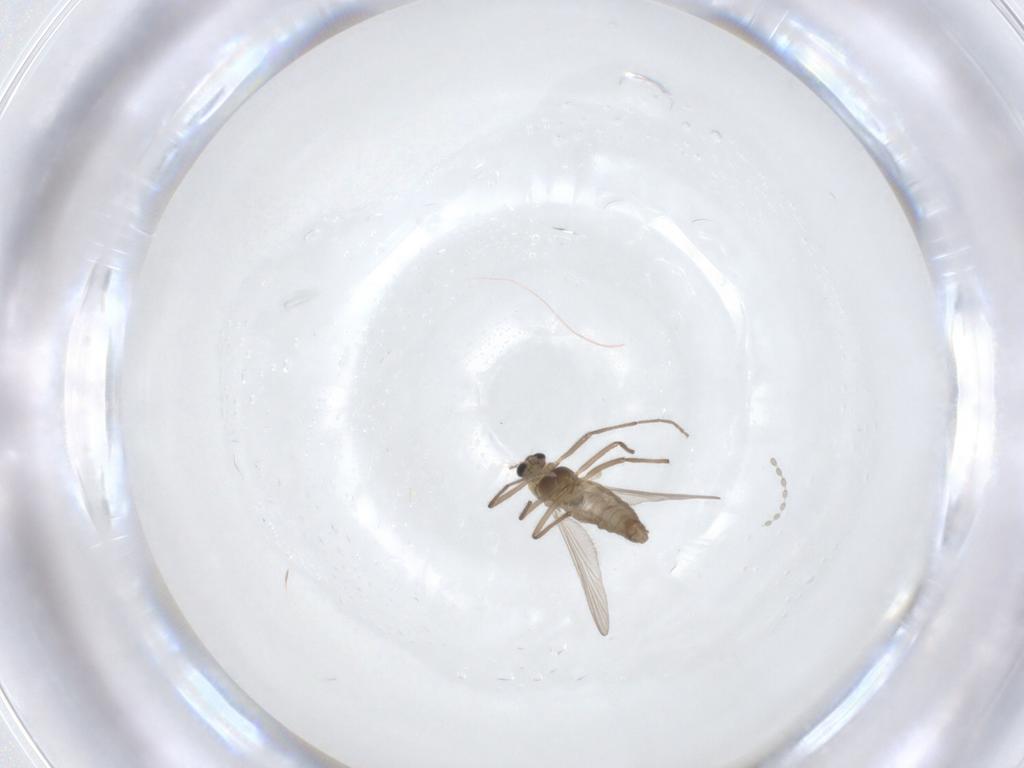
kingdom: Animalia
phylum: Arthropoda
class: Insecta
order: Diptera
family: Chironomidae
